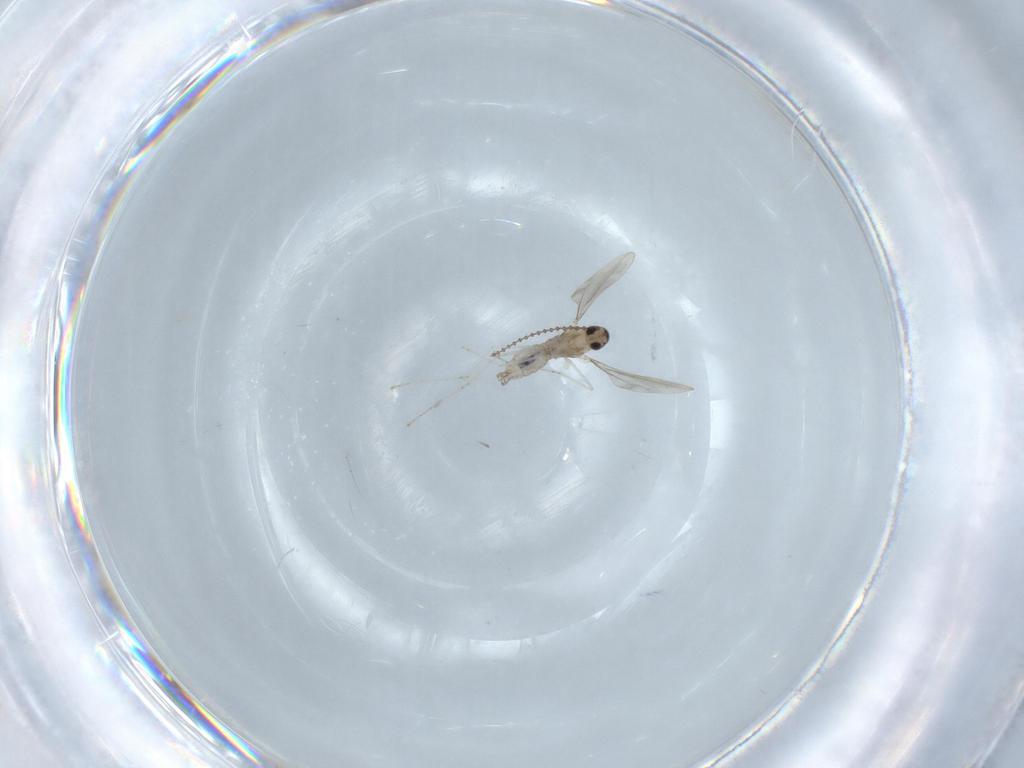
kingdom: Animalia
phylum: Arthropoda
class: Insecta
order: Diptera
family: Cecidomyiidae
